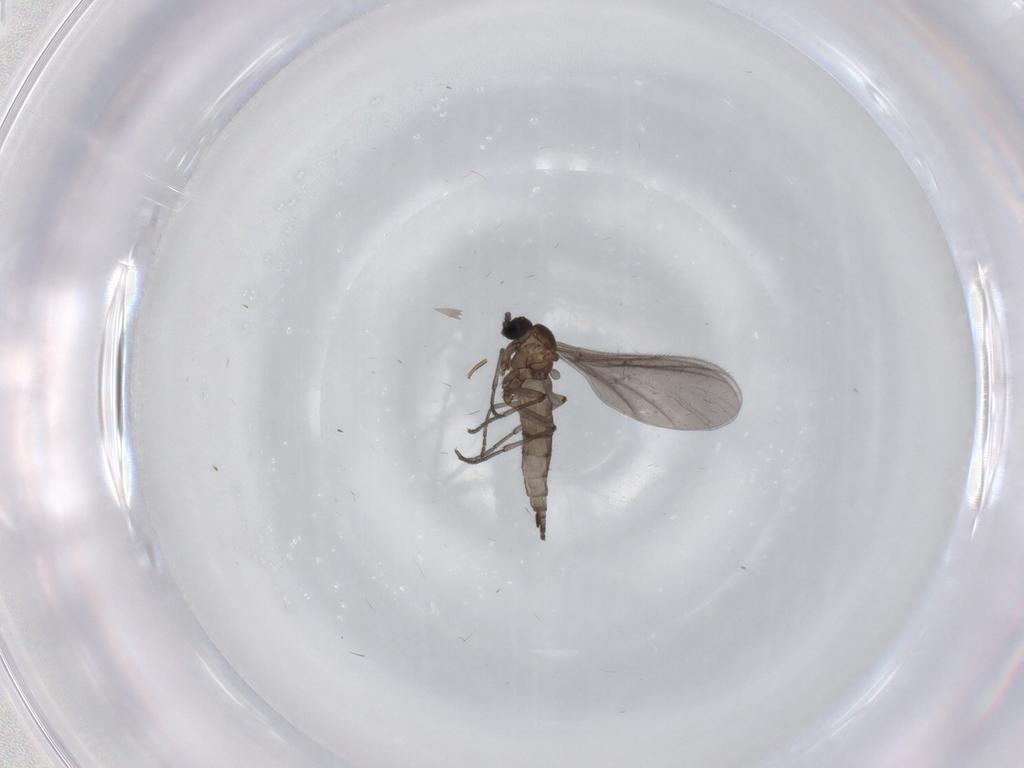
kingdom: Animalia
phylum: Arthropoda
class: Insecta
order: Diptera
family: Sciaridae
